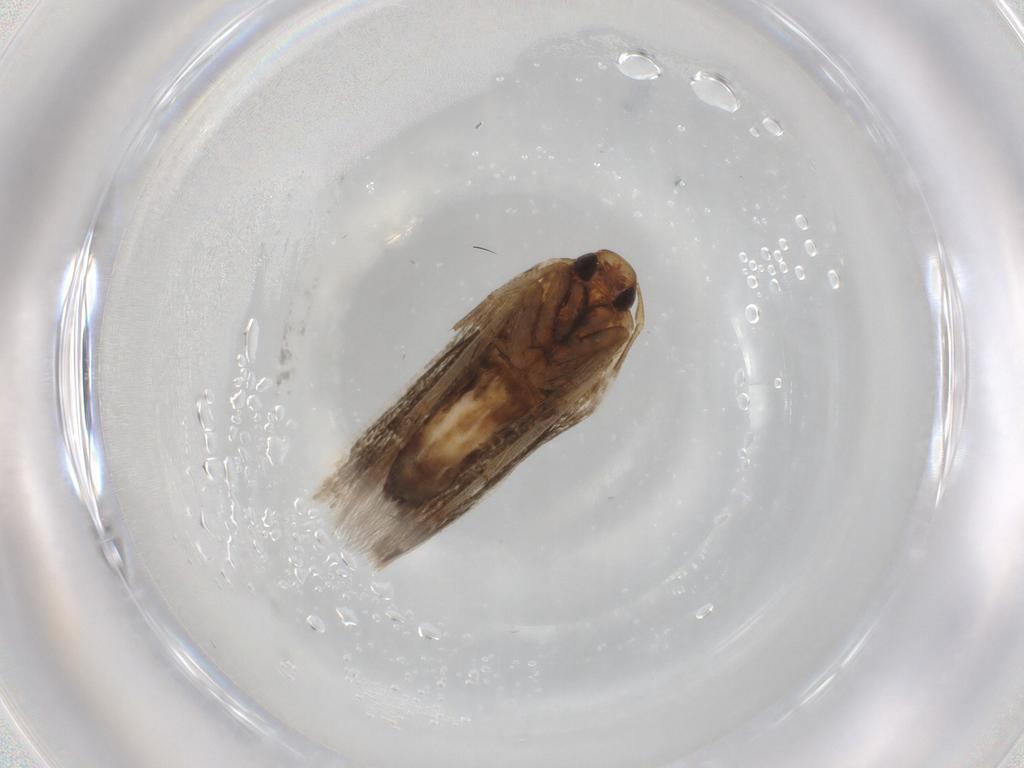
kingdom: Animalia
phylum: Arthropoda
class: Insecta
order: Lepidoptera
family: Cosmopterigidae
